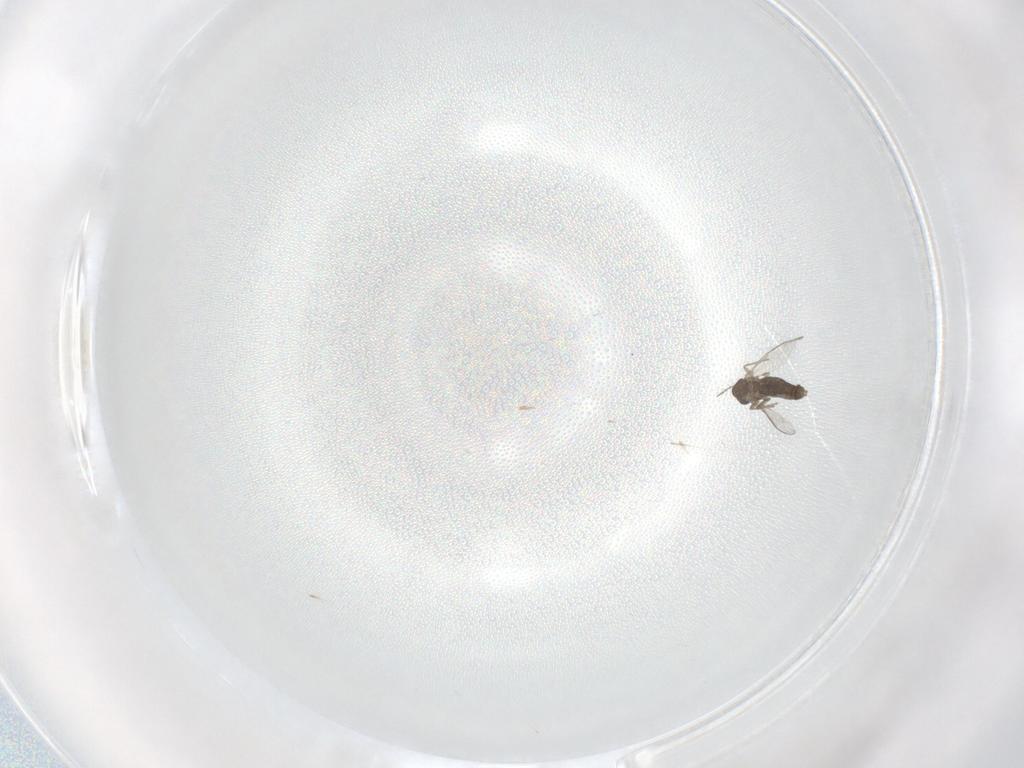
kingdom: Animalia
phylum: Arthropoda
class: Insecta
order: Diptera
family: Chironomidae
